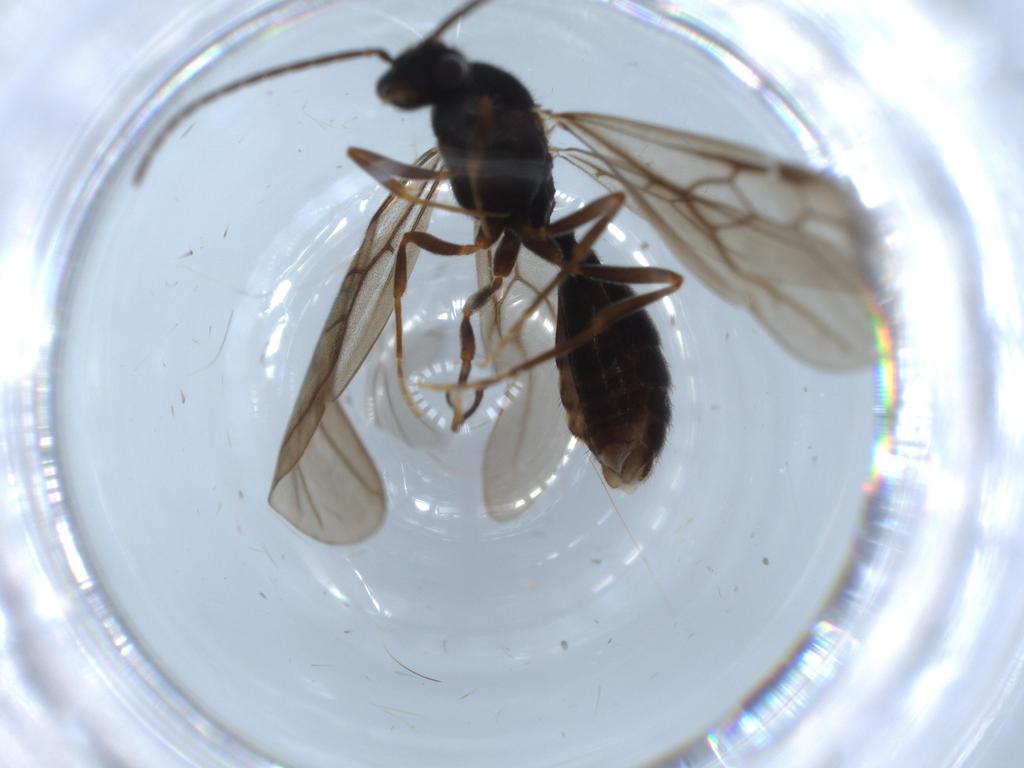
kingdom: Animalia
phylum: Arthropoda
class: Insecta
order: Hymenoptera
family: Formicidae
